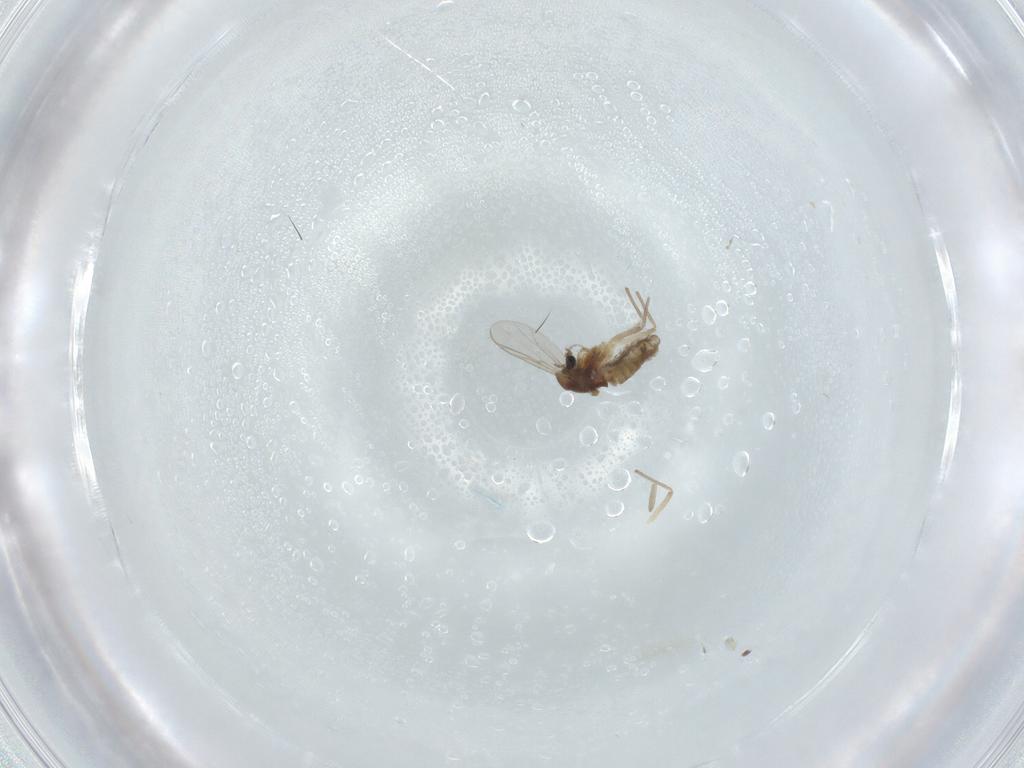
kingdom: Animalia
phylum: Arthropoda
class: Insecta
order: Diptera
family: Chironomidae
